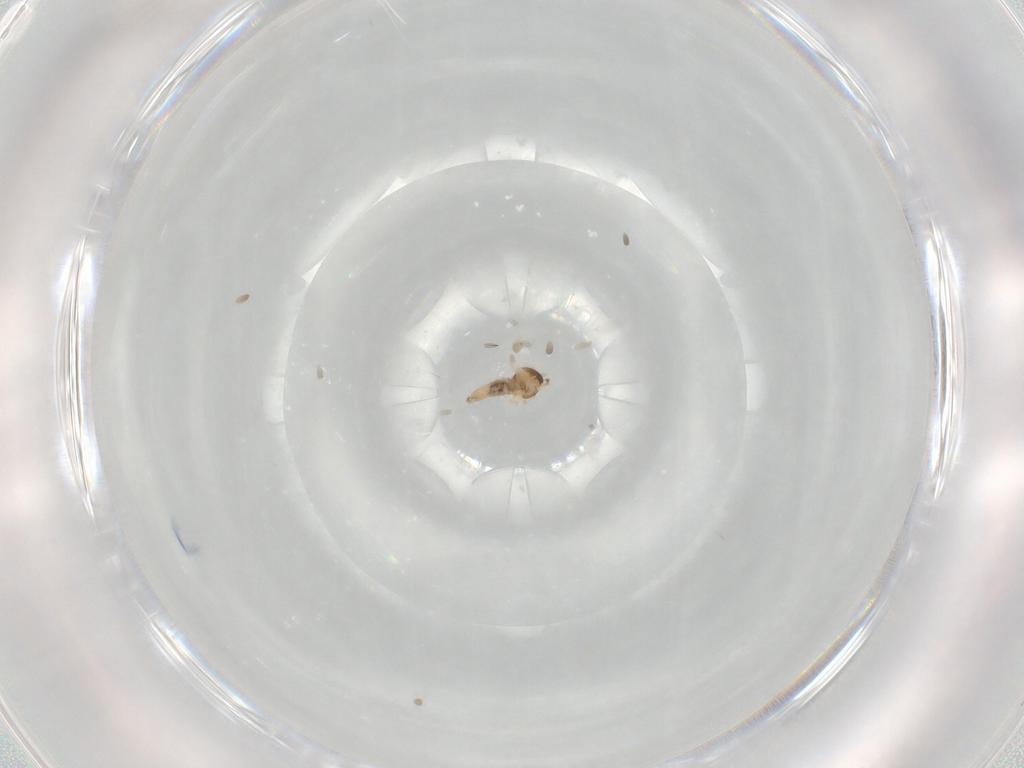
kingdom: Animalia
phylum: Arthropoda
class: Insecta
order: Diptera
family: Cecidomyiidae
